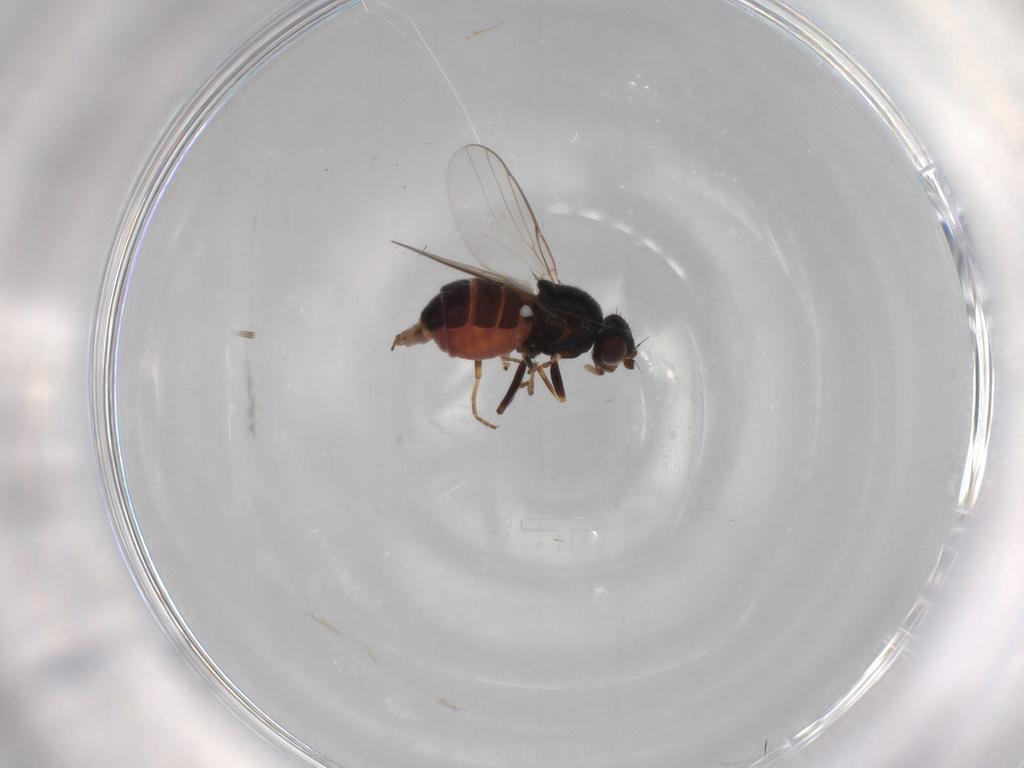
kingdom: Animalia
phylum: Arthropoda
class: Insecta
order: Diptera
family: Chloropidae
